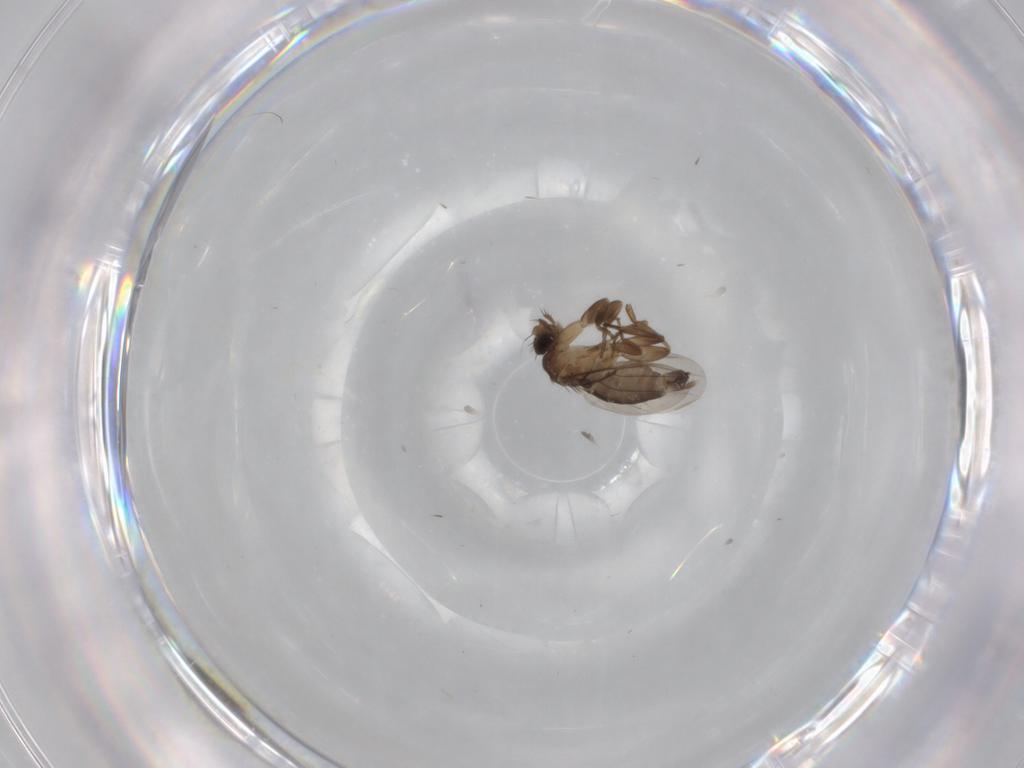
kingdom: Animalia
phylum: Arthropoda
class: Insecta
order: Diptera
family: Phoridae
